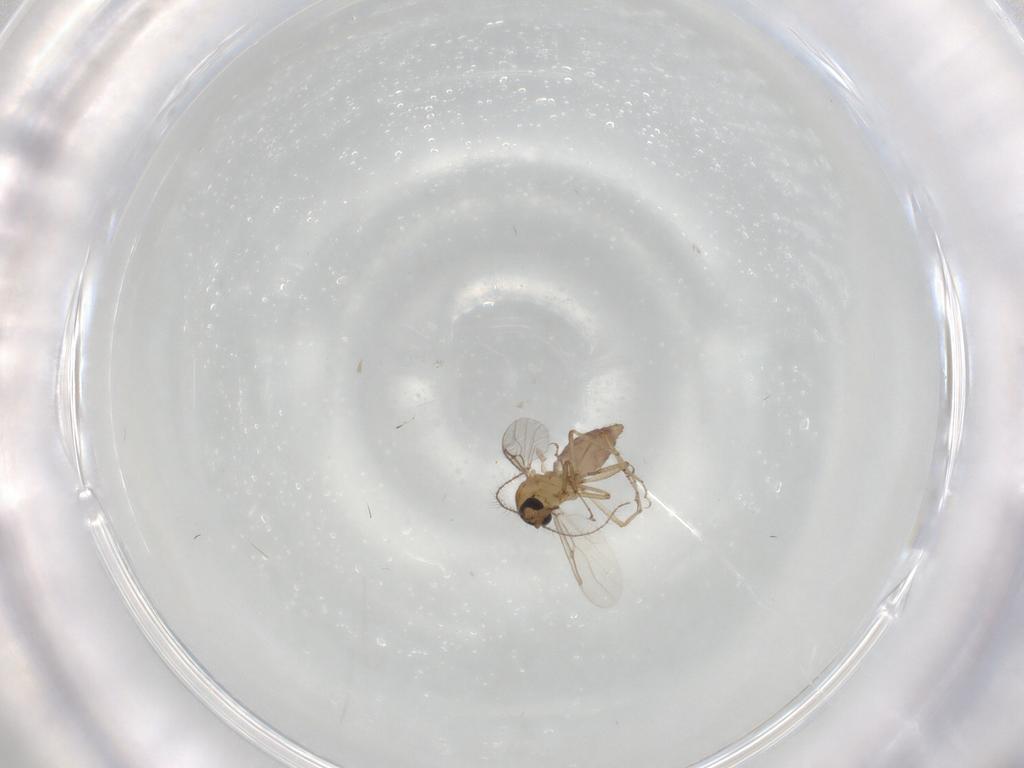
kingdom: Animalia
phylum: Arthropoda
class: Insecta
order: Diptera
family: Ceratopogonidae
